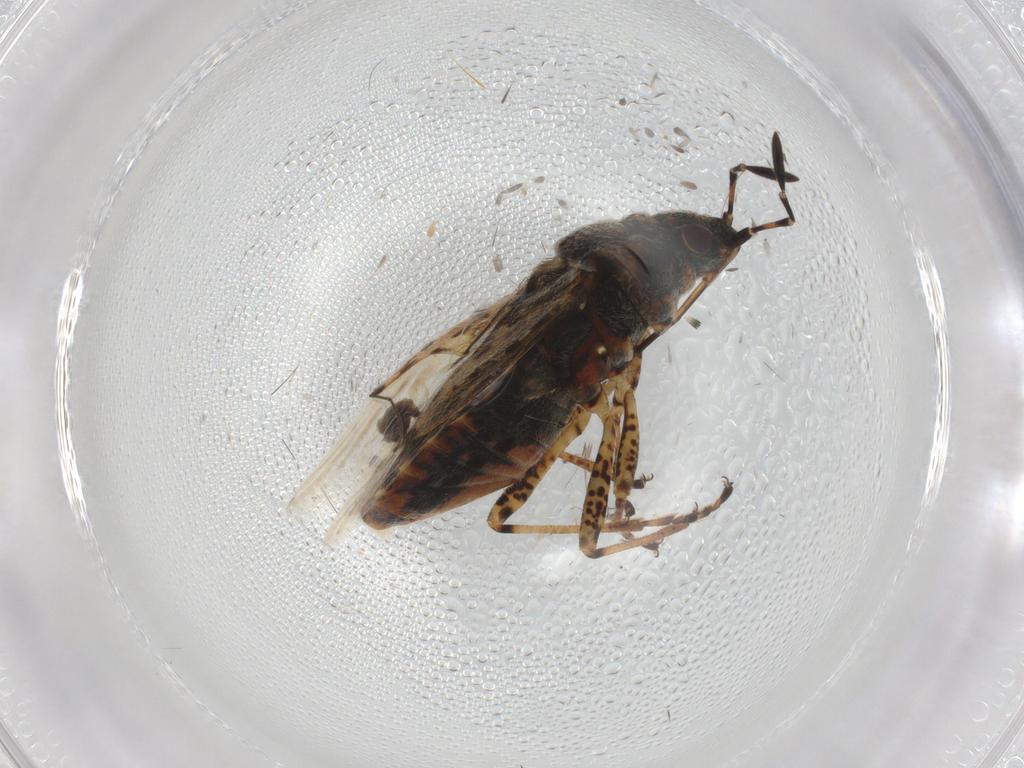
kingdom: Animalia
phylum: Arthropoda
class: Insecta
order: Hemiptera
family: Lygaeidae
